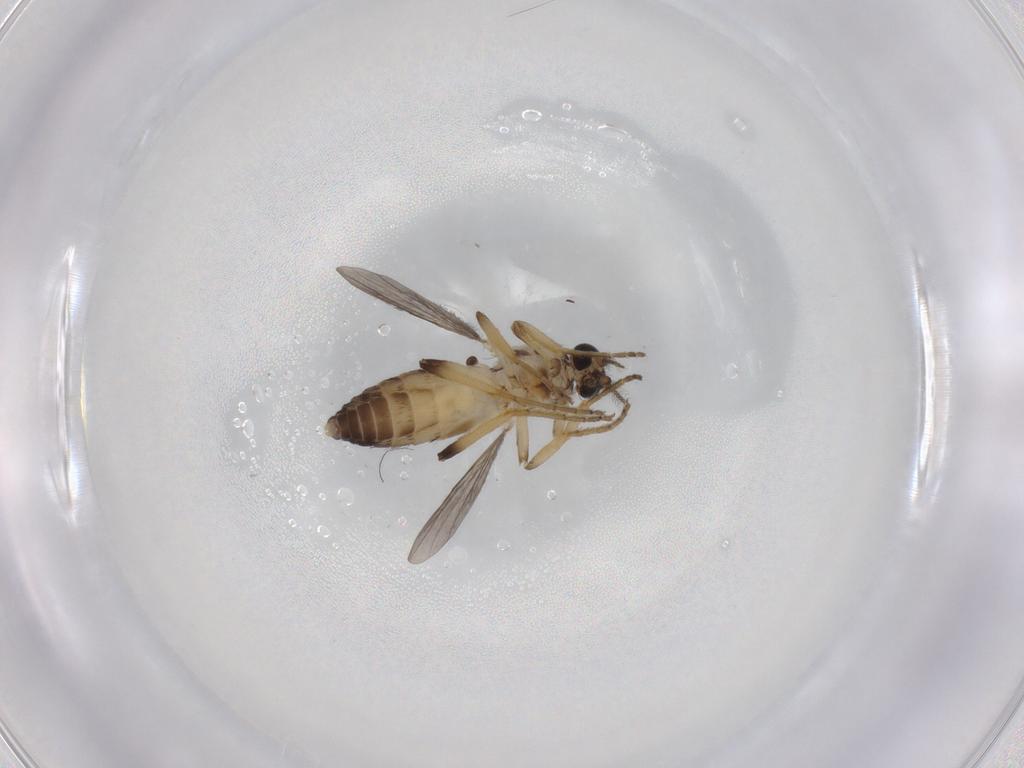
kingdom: Animalia
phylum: Arthropoda
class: Insecta
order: Diptera
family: Ceratopogonidae
